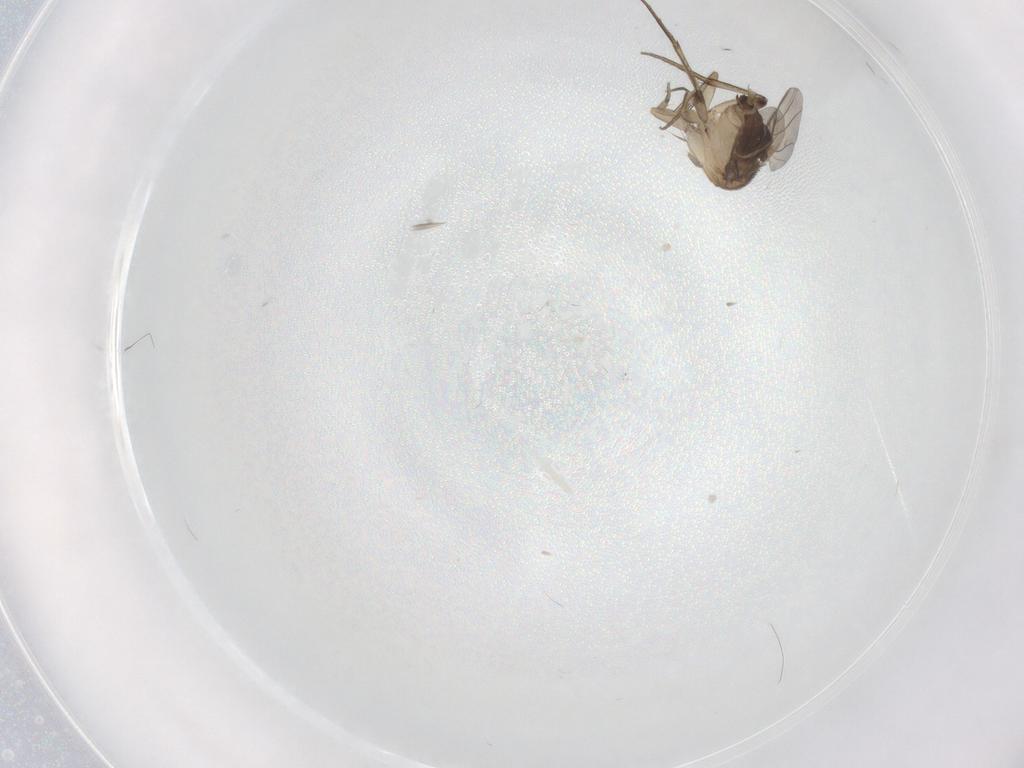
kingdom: Animalia
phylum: Arthropoda
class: Insecta
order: Diptera
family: Phoridae
